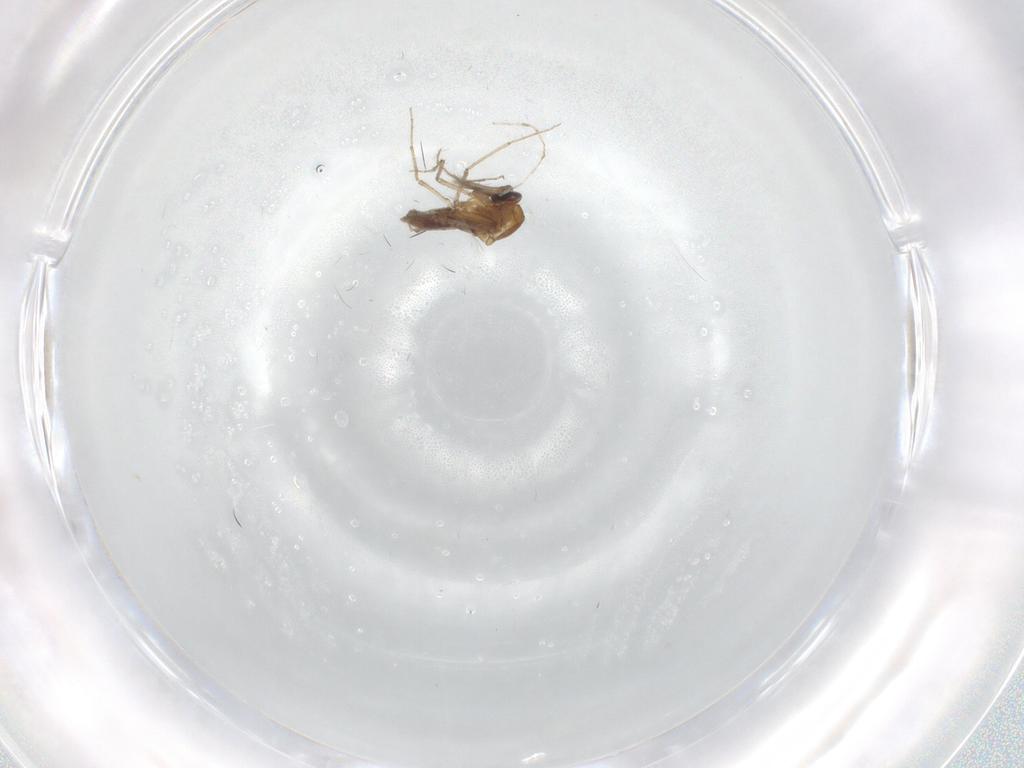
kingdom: Animalia
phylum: Arthropoda
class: Insecta
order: Diptera
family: Ceratopogonidae
